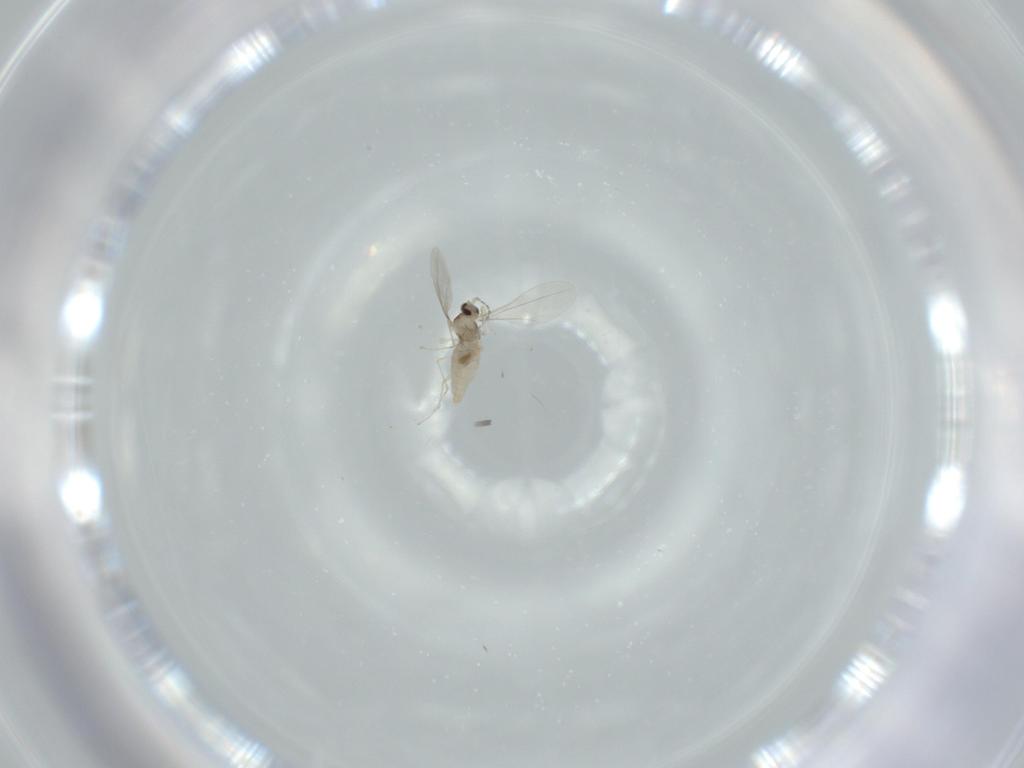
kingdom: Animalia
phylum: Arthropoda
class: Insecta
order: Diptera
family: Cecidomyiidae
